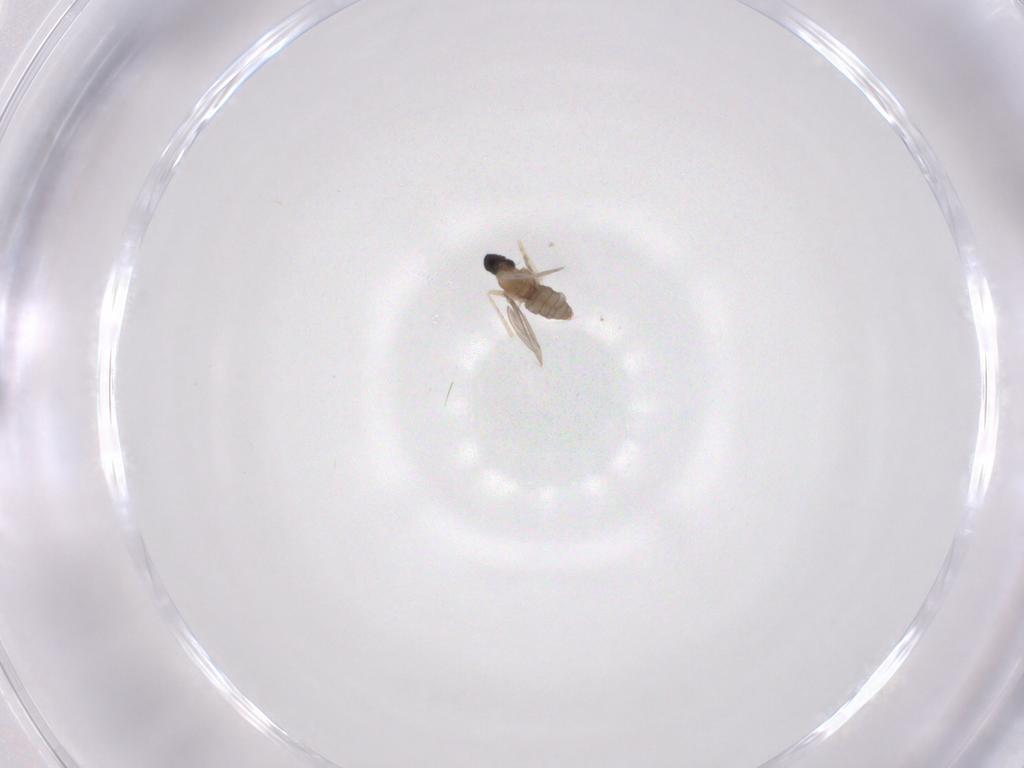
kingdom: Animalia
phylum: Arthropoda
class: Insecta
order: Diptera
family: Cecidomyiidae
